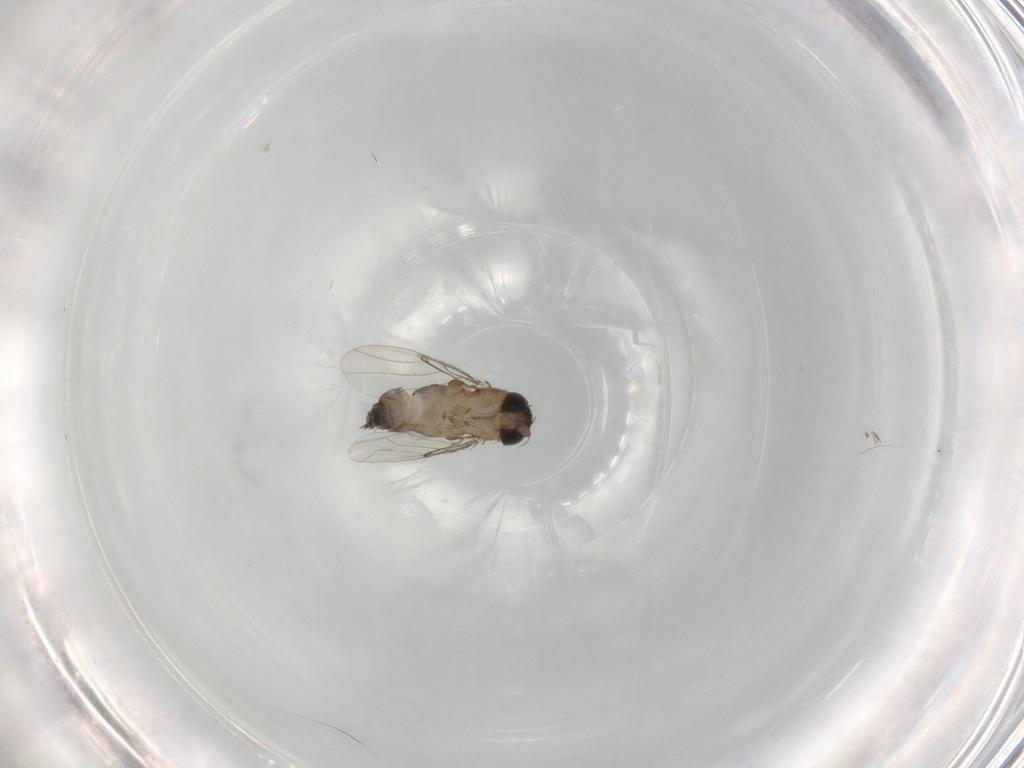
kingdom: Animalia
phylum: Arthropoda
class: Insecta
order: Diptera
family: Phoridae
